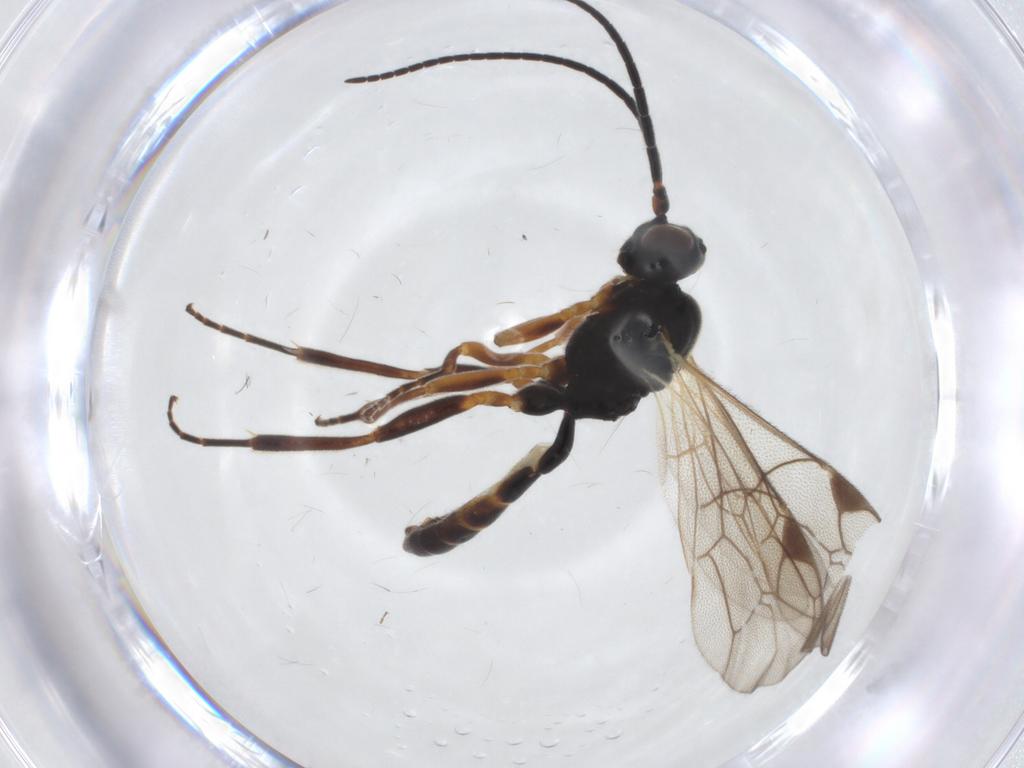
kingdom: Animalia
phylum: Arthropoda
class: Insecta
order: Hymenoptera
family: Ichneumonidae
